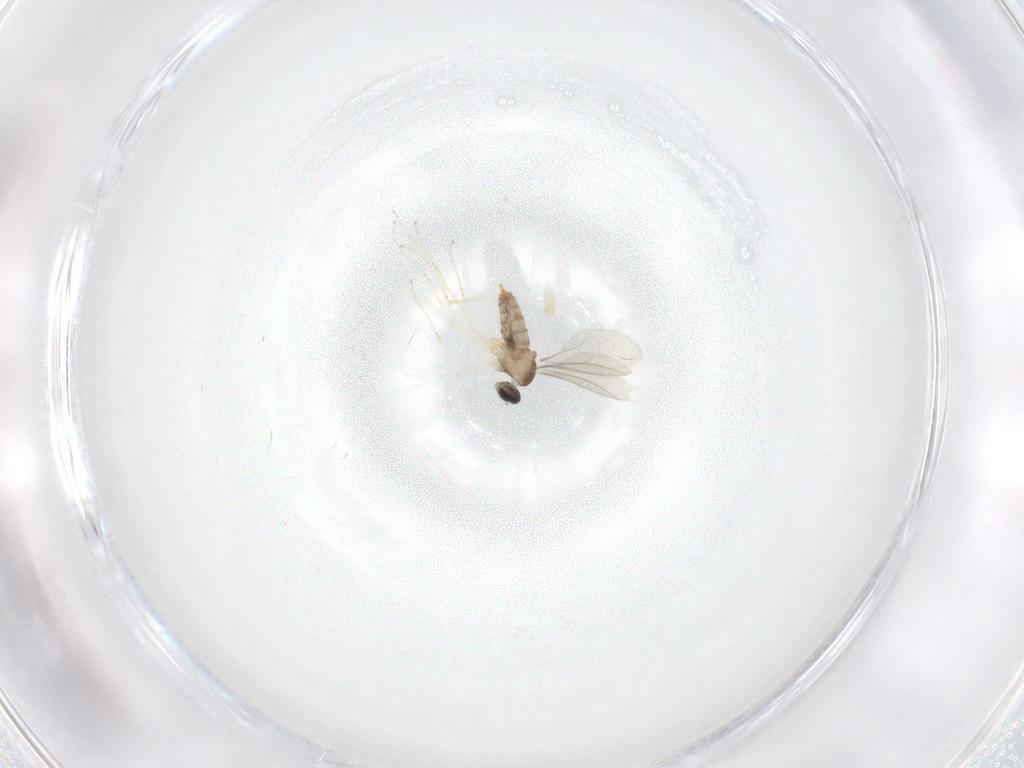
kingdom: Animalia
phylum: Arthropoda
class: Insecta
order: Diptera
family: Cecidomyiidae
